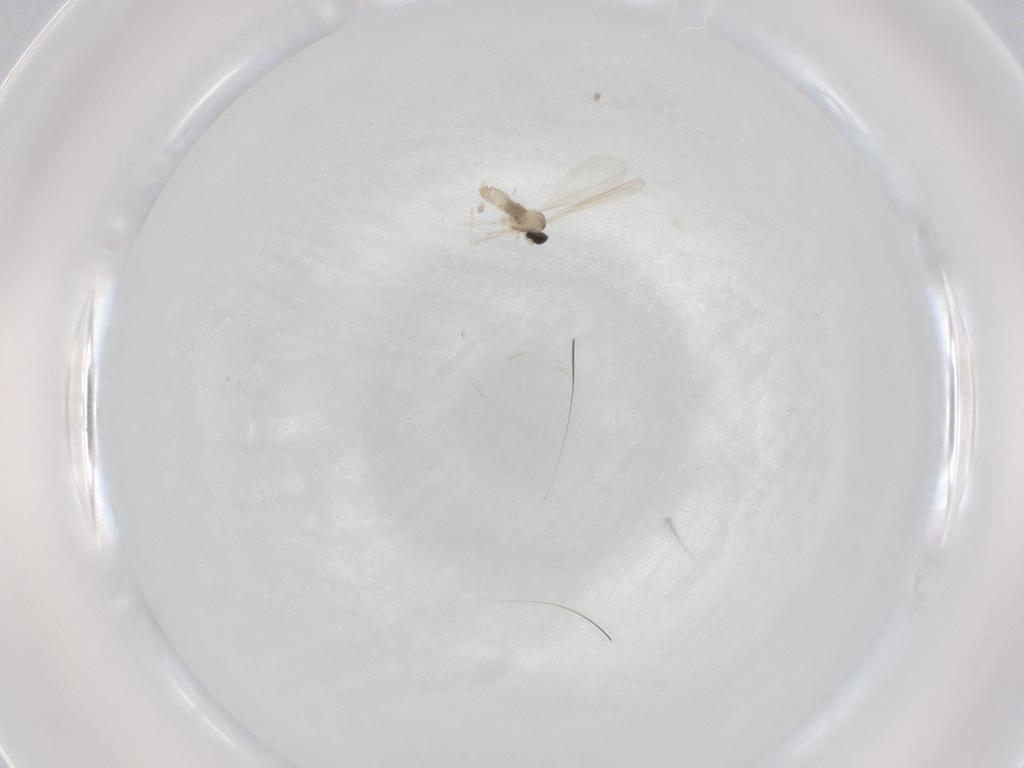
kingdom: Animalia
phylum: Arthropoda
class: Insecta
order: Diptera
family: Cecidomyiidae
